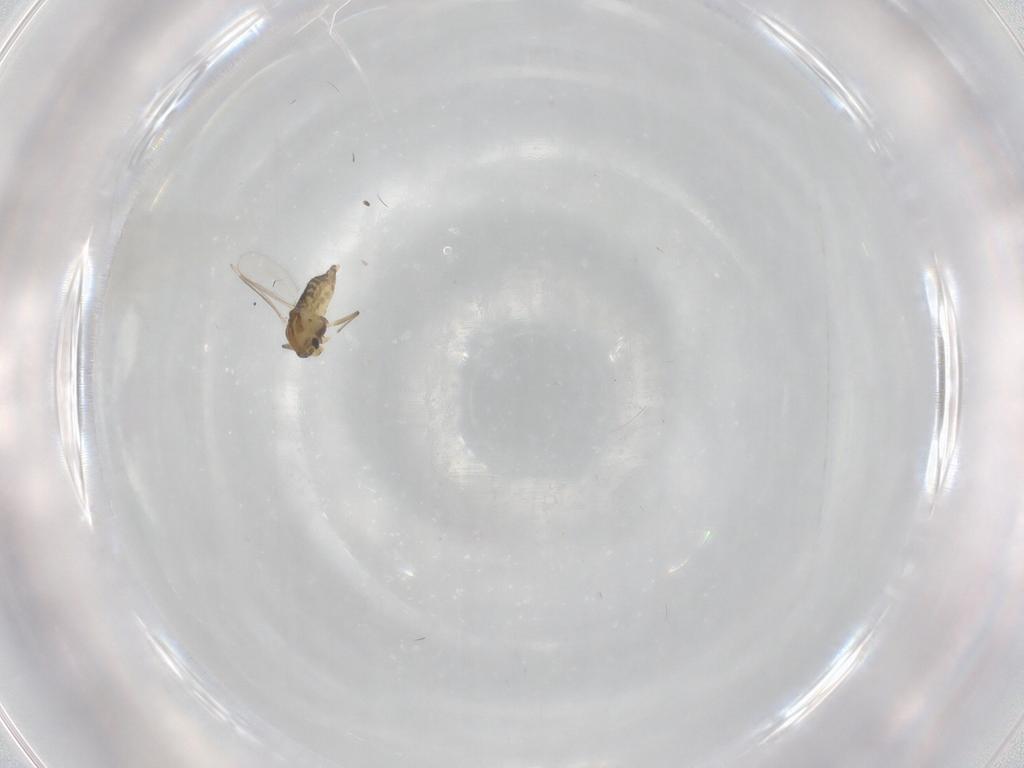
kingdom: Animalia
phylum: Arthropoda
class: Insecta
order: Diptera
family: Chironomidae
